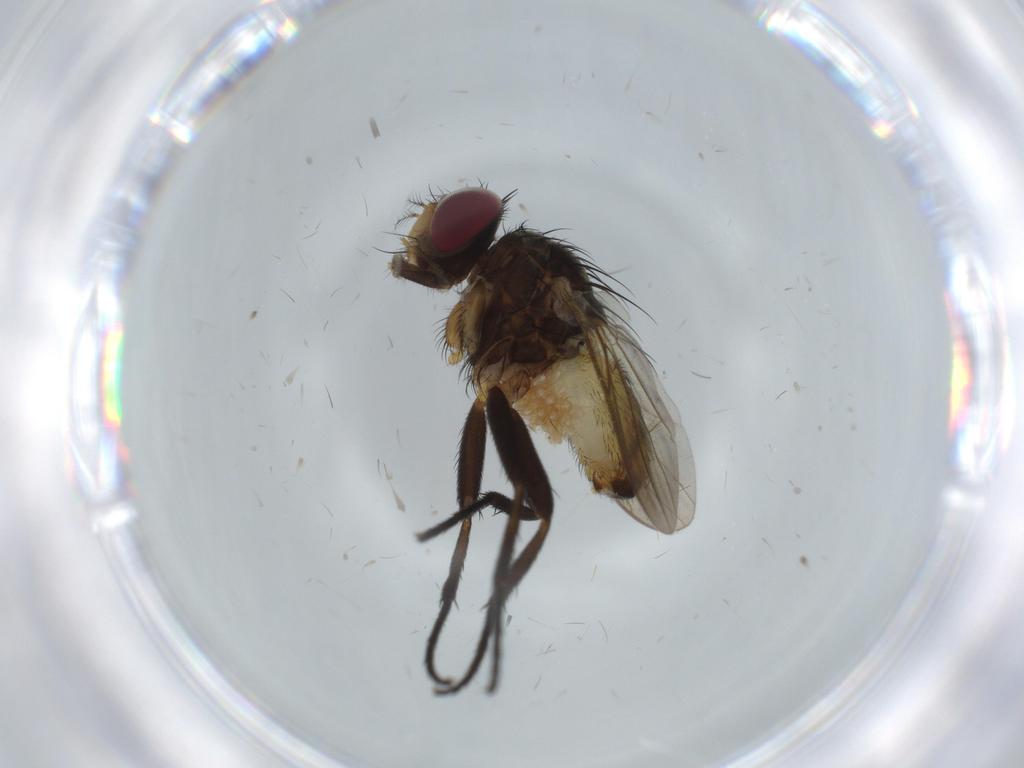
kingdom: Animalia
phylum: Arthropoda
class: Insecta
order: Diptera
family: Anthomyiidae
